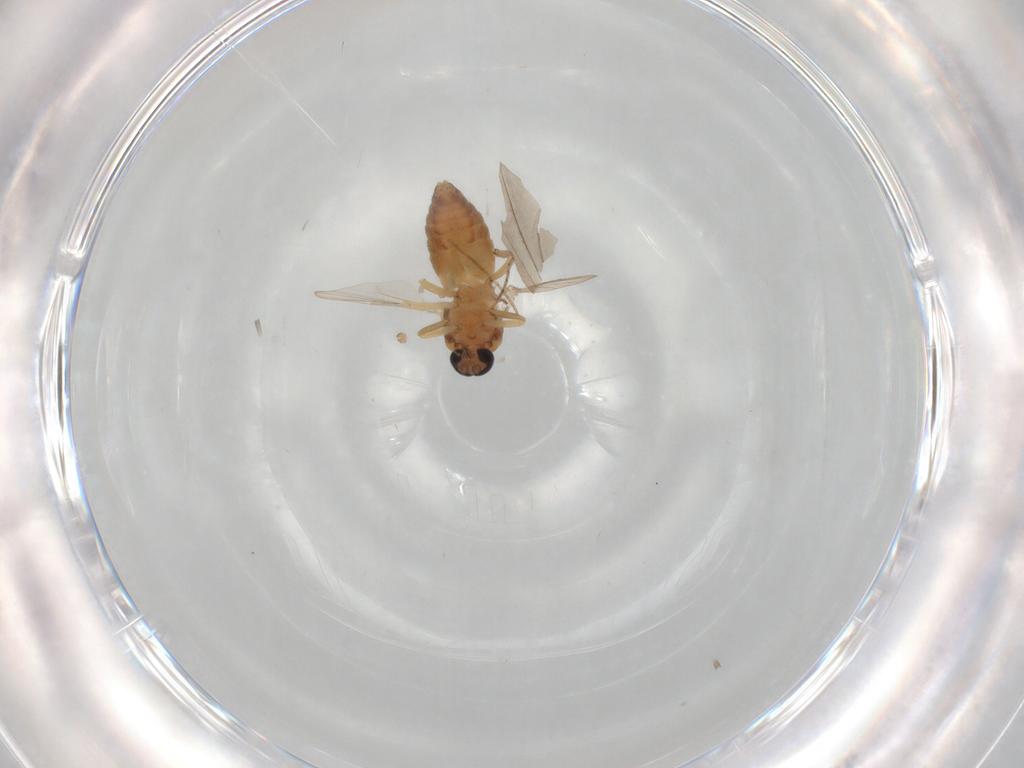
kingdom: Animalia
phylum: Arthropoda
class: Insecta
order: Diptera
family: Ceratopogonidae
